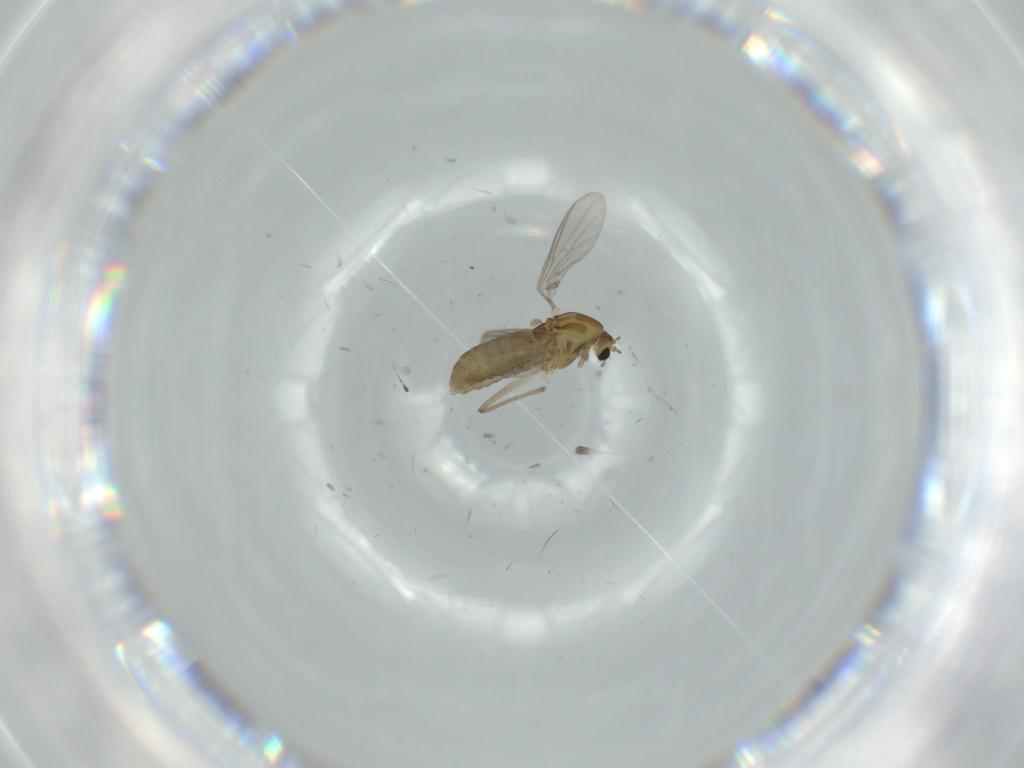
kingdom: Animalia
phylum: Arthropoda
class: Insecta
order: Diptera
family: Chironomidae
